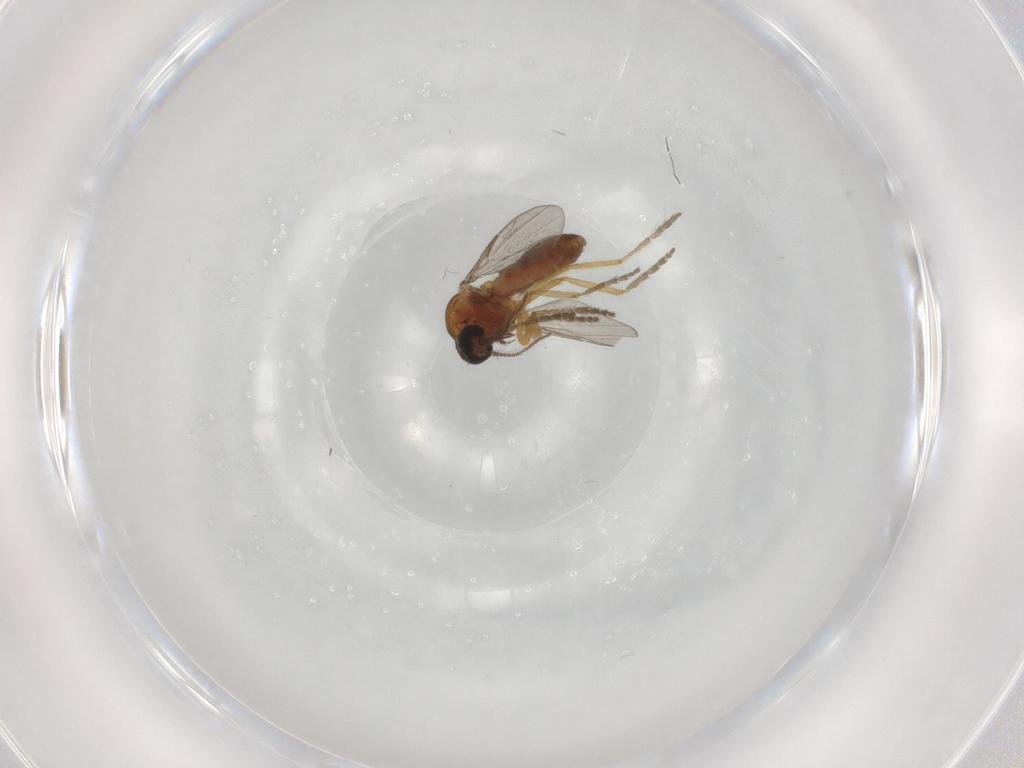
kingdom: Animalia
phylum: Arthropoda
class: Insecta
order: Diptera
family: Ceratopogonidae
